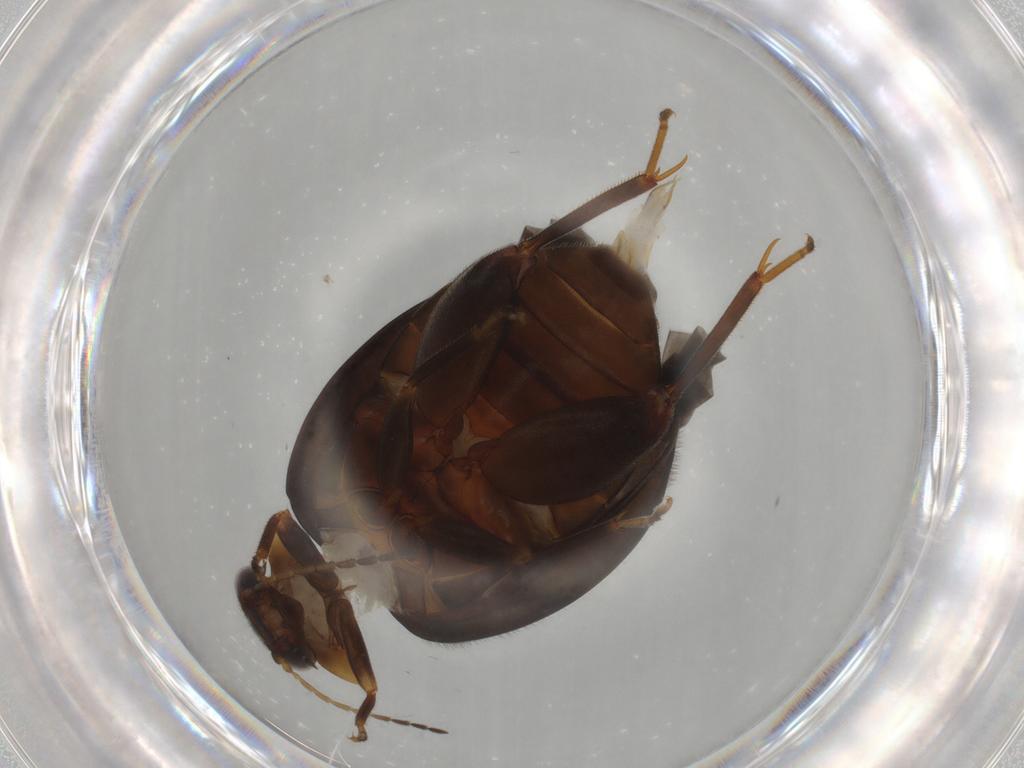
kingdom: Animalia
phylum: Arthropoda
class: Insecta
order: Coleoptera
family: Scirtidae
